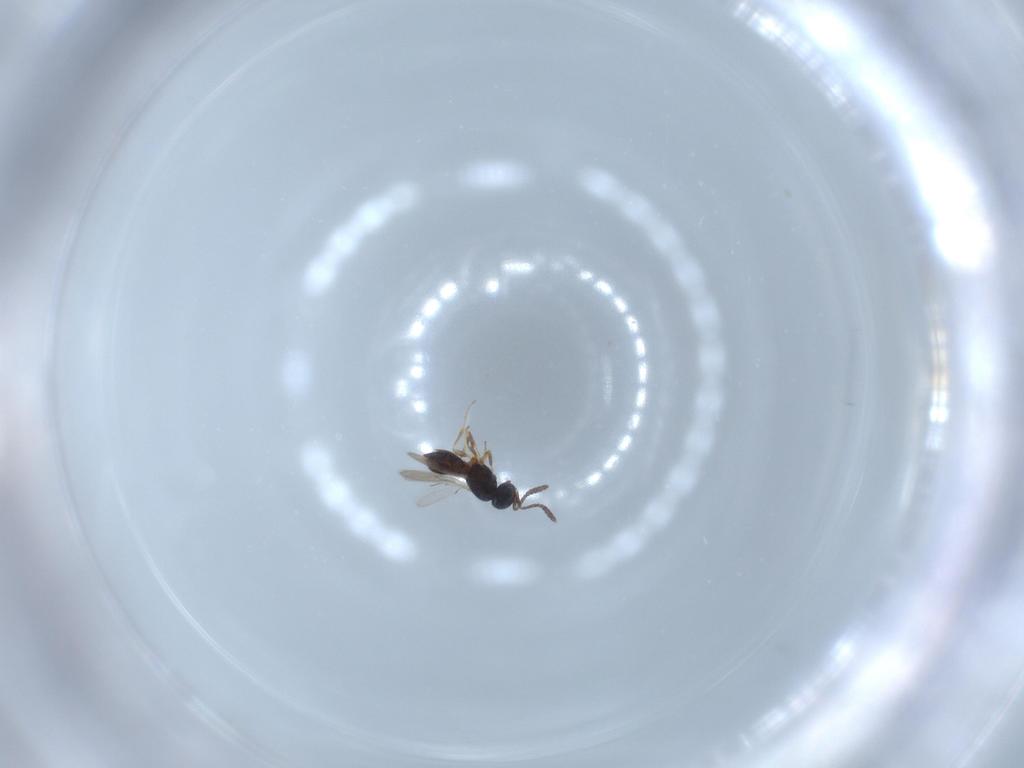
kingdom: Animalia
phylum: Arthropoda
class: Insecta
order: Hymenoptera
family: Scelionidae
